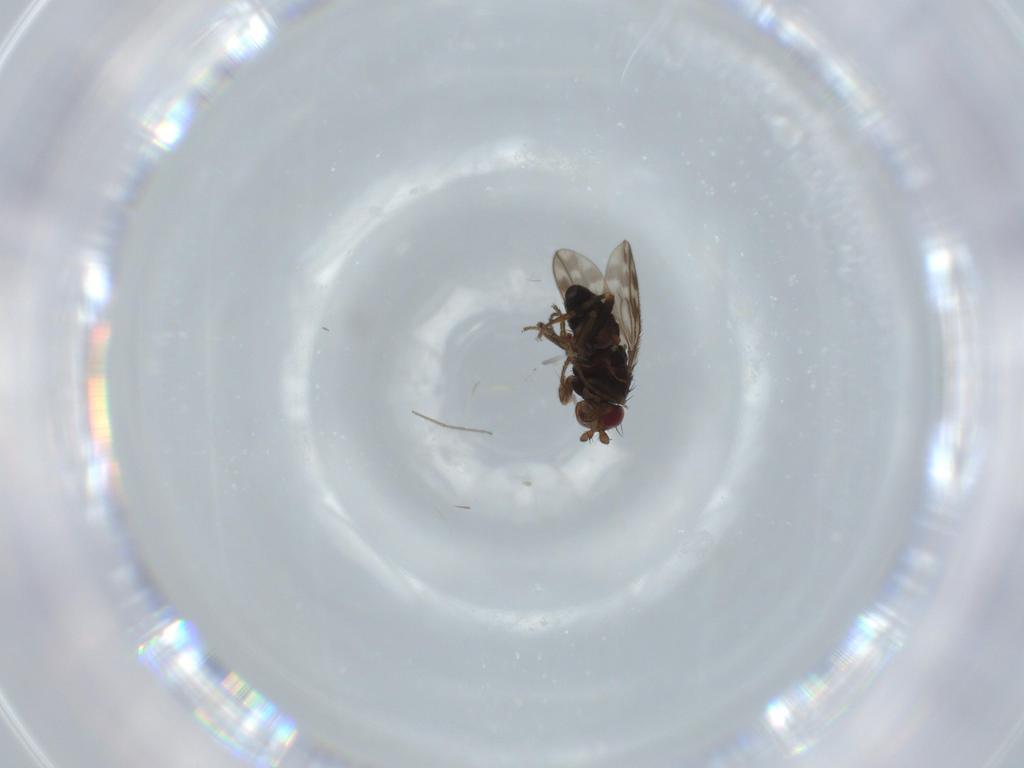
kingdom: Animalia
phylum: Arthropoda
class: Insecta
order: Diptera
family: Sphaeroceridae
